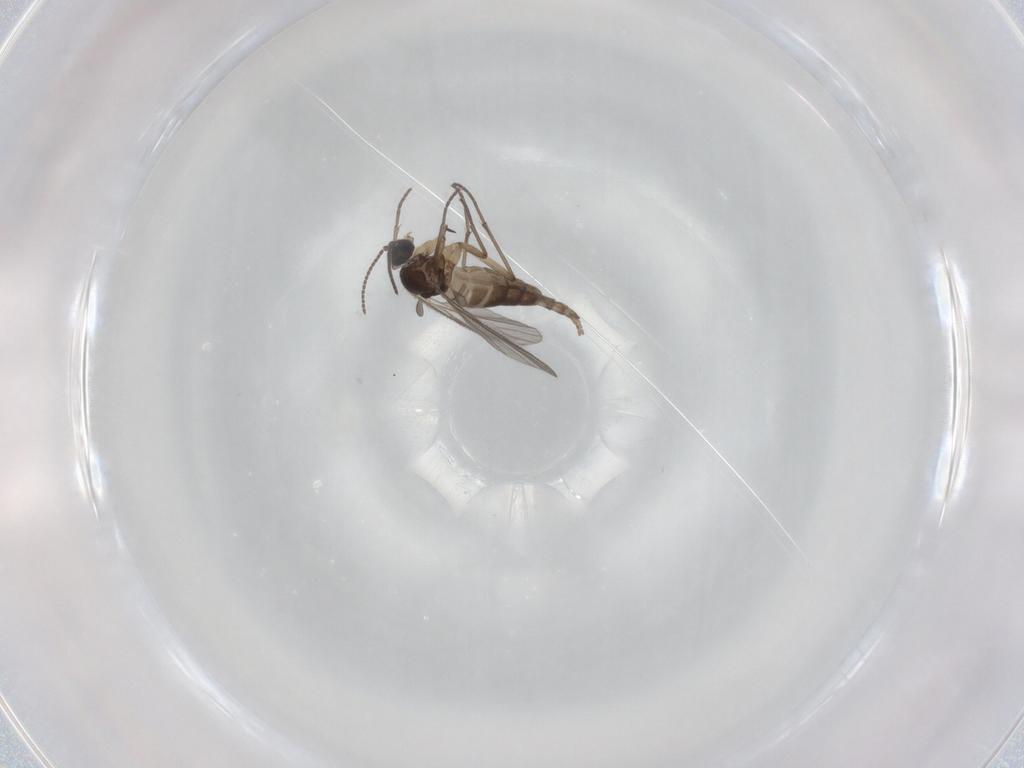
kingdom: Animalia
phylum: Arthropoda
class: Insecta
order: Diptera
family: Sciaridae
